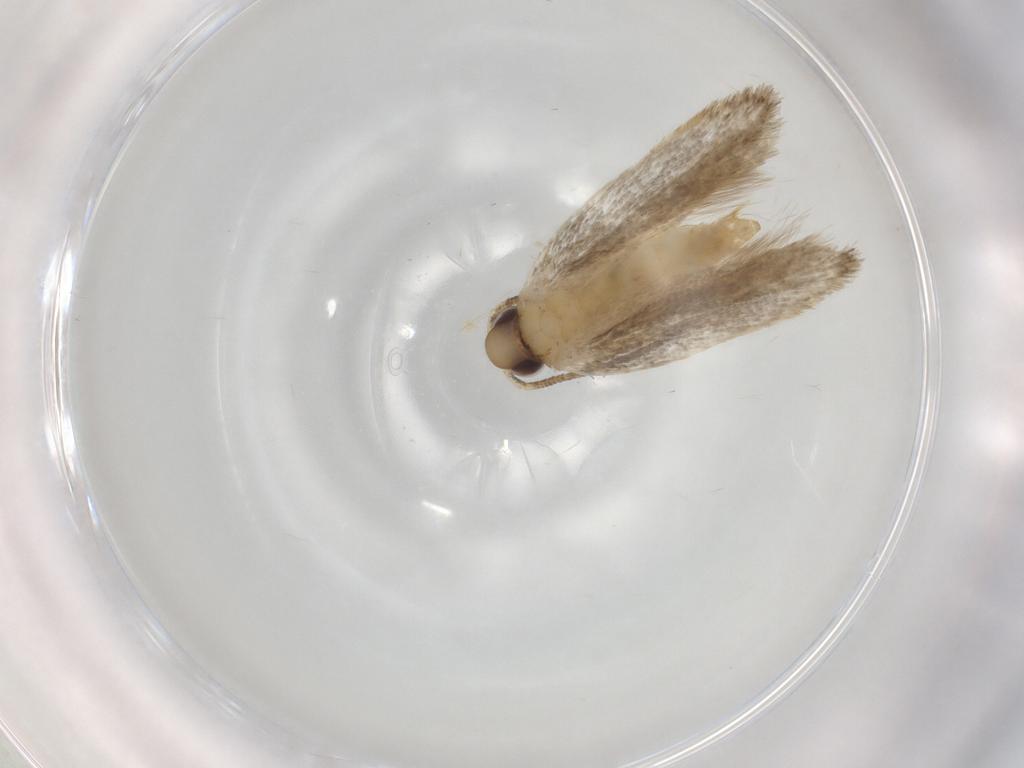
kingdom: Animalia
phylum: Arthropoda
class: Insecta
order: Lepidoptera
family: Autostichidae
